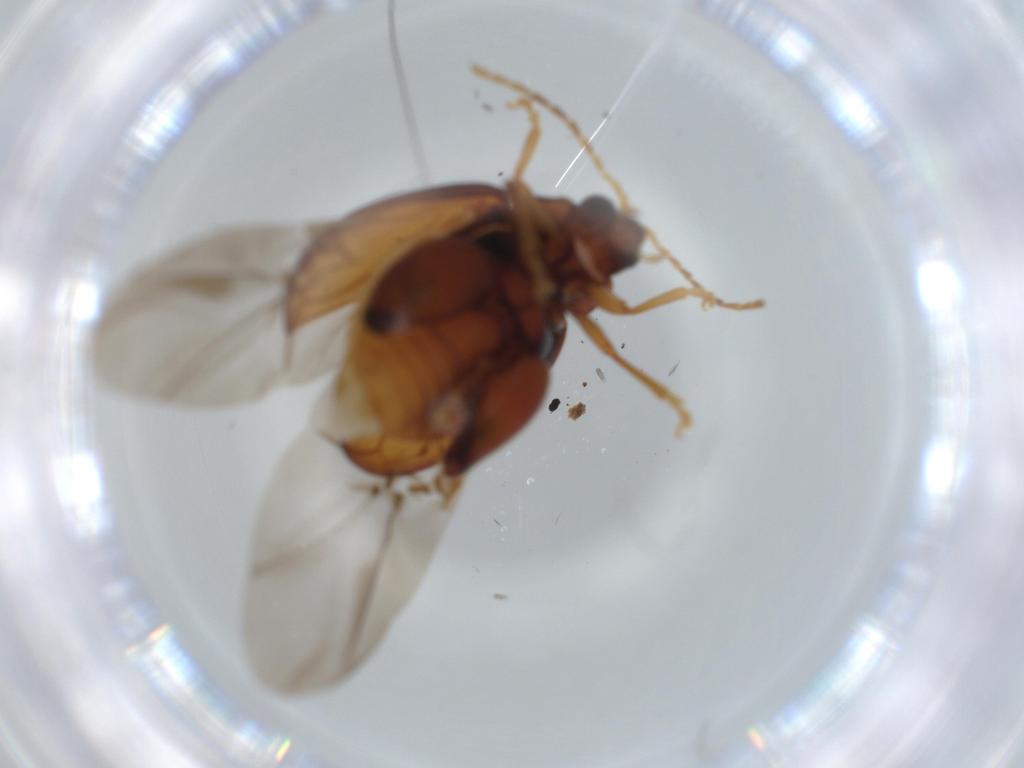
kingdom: Animalia
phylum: Arthropoda
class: Insecta
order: Coleoptera
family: Chrysomelidae
